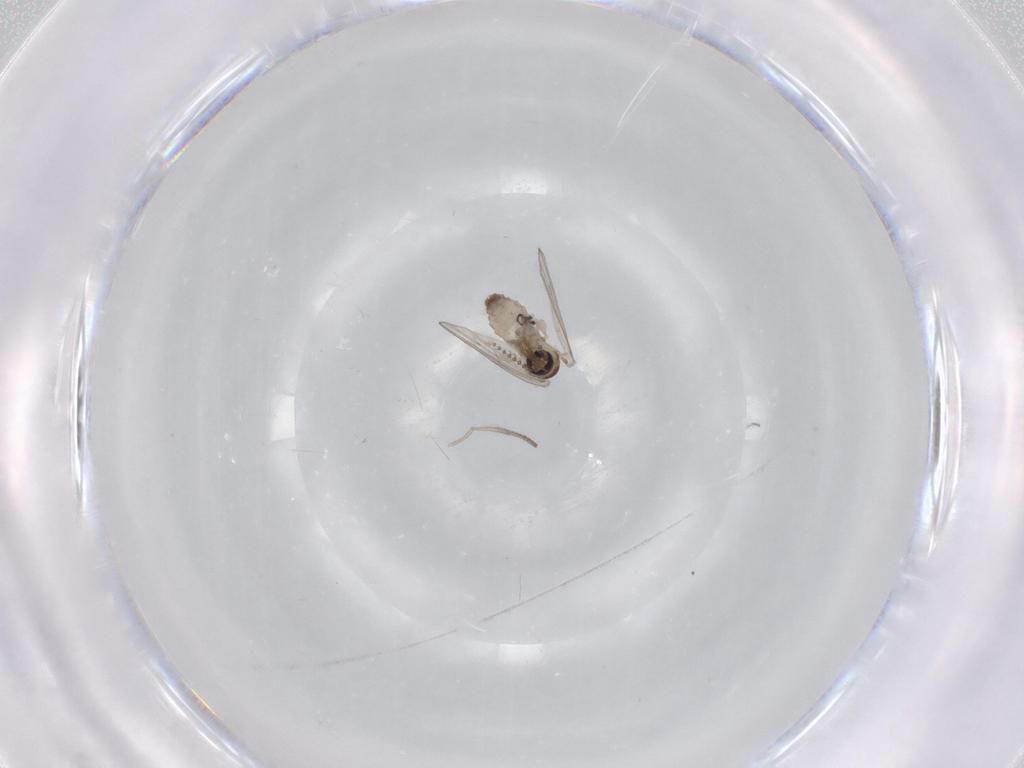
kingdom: Animalia
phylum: Arthropoda
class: Insecta
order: Diptera
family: Psychodidae
